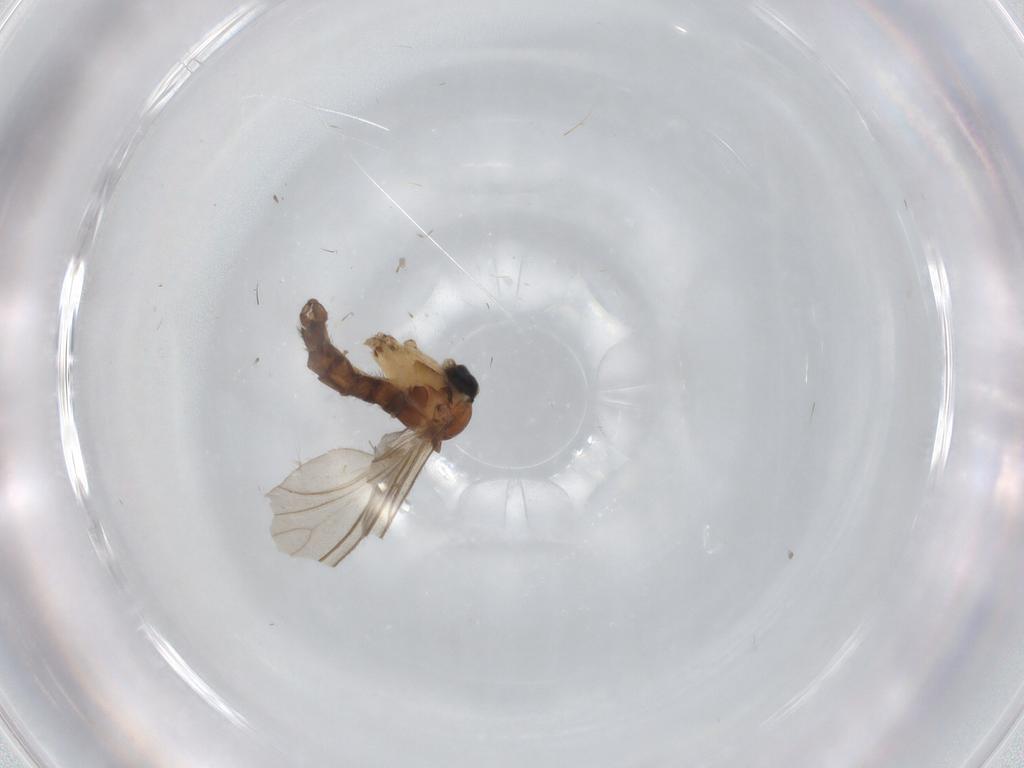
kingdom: Animalia
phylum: Arthropoda
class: Insecta
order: Diptera
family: Sciaridae
